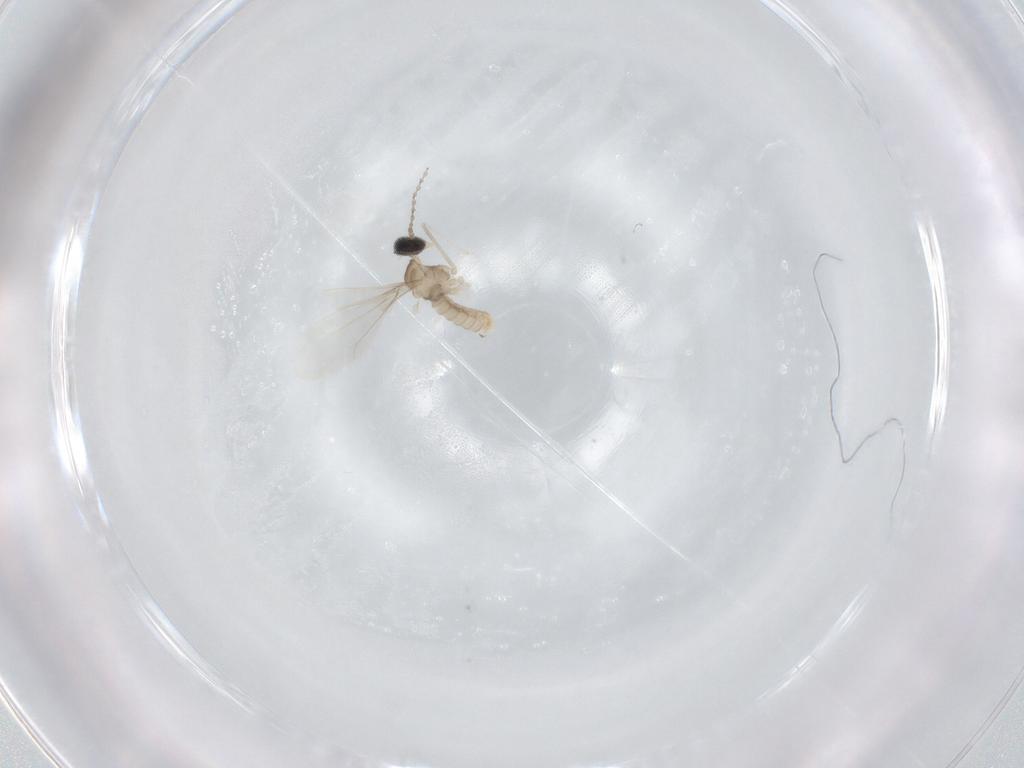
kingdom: Animalia
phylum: Arthropoda
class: Insecta
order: Diptera
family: Cecidomyiidae
